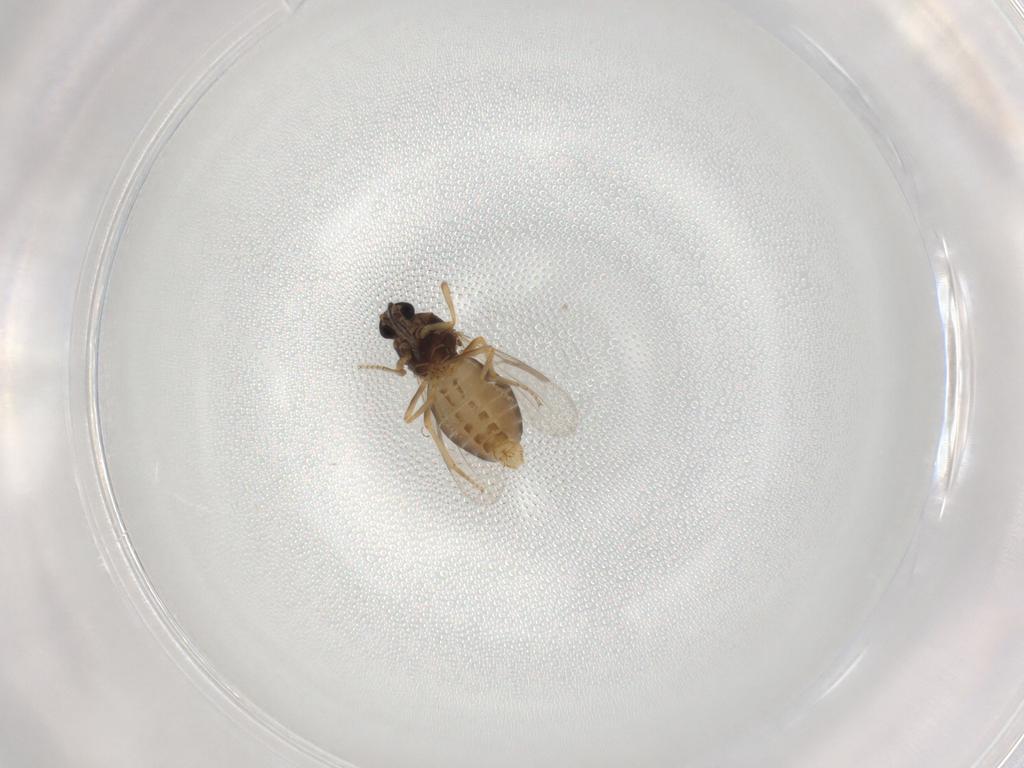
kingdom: Animalia
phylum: Arthropoda
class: Insecta
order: Diptera
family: Ceratopogonidae
